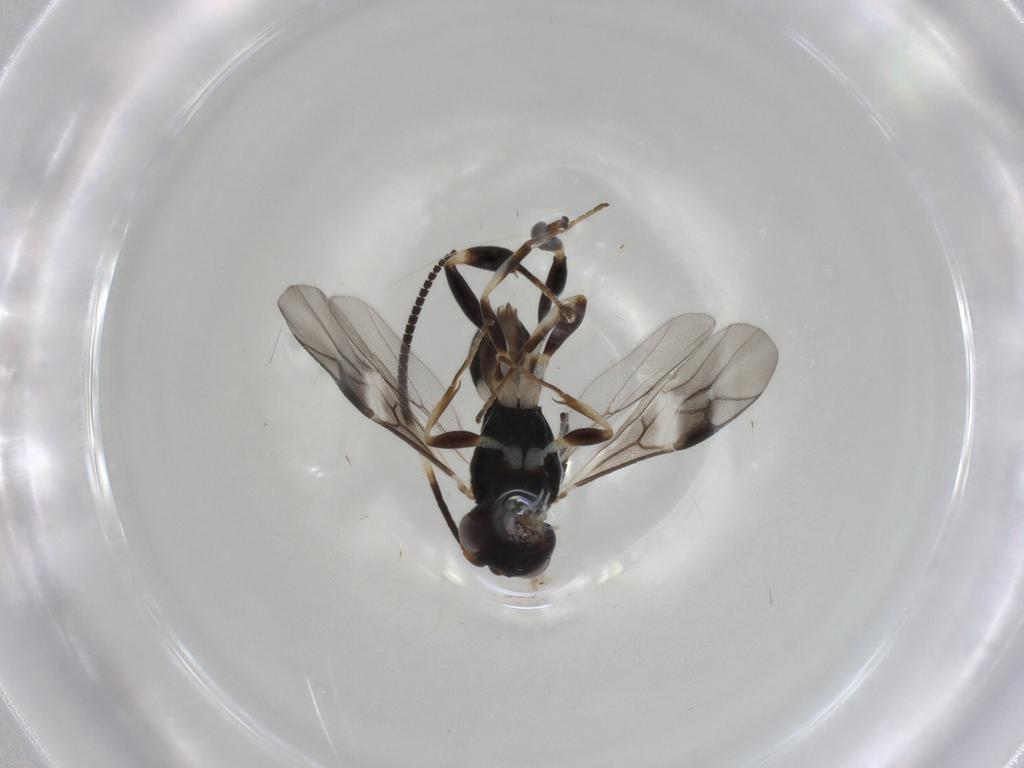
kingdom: Animalia
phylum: Arthropoda
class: Insecta
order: Hymenoptera
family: Braconidae
